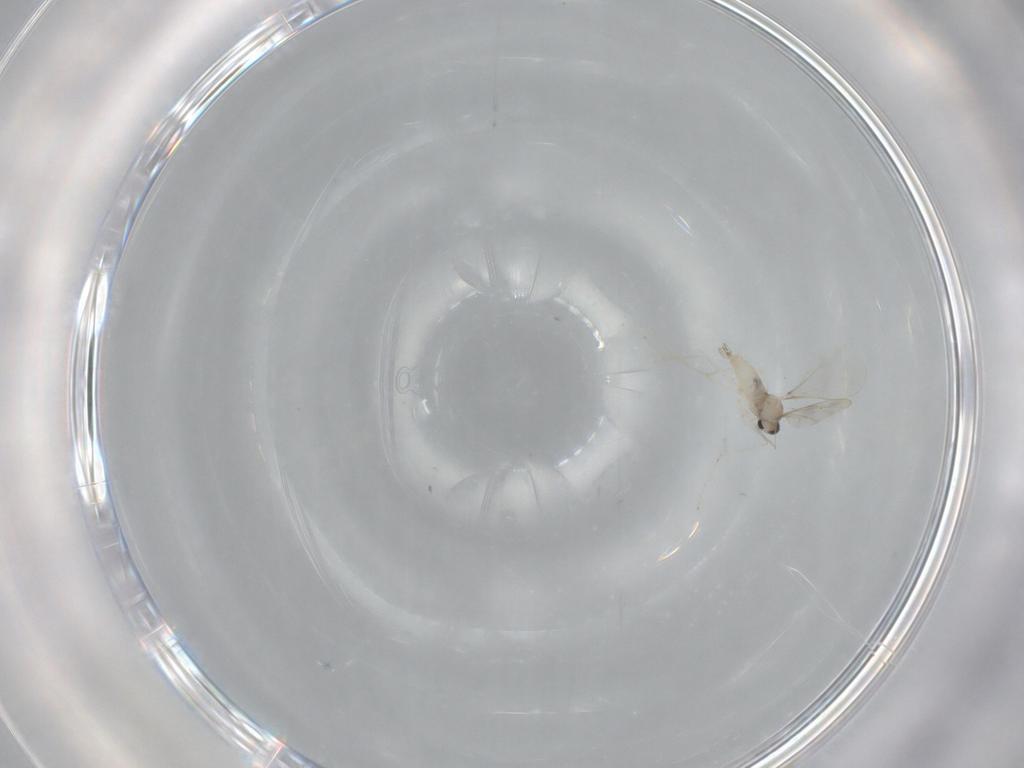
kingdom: Animalia
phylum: Arthropoda
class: Insecta
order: Diptera
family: Cecidomyiidae
